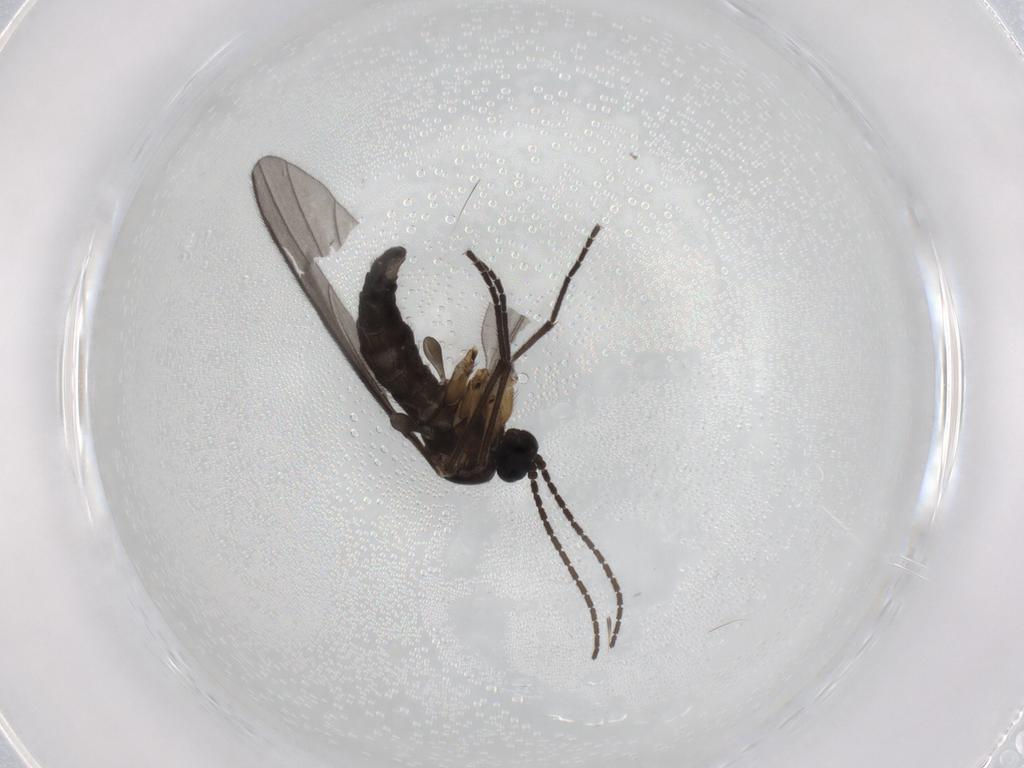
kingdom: Animalia
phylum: Arthropoda
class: Insecta
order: Diptera
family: Sciaridae
